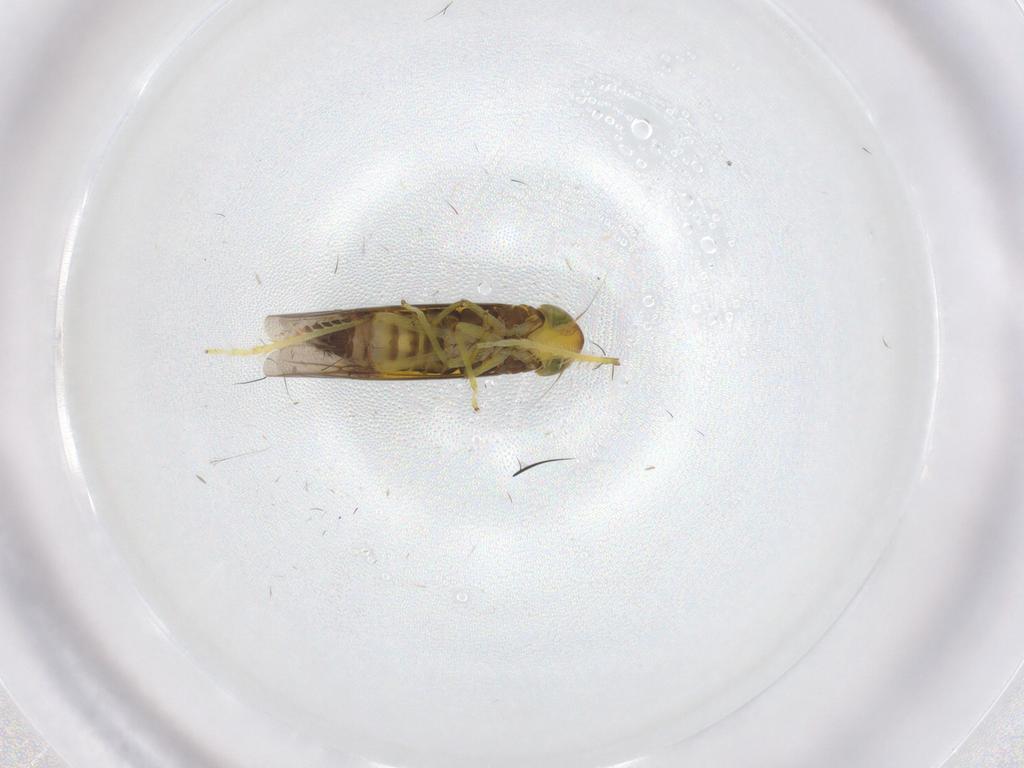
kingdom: Animalia
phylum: Arthropoda
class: Insecta
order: Hemiptera
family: Cicadellidae
